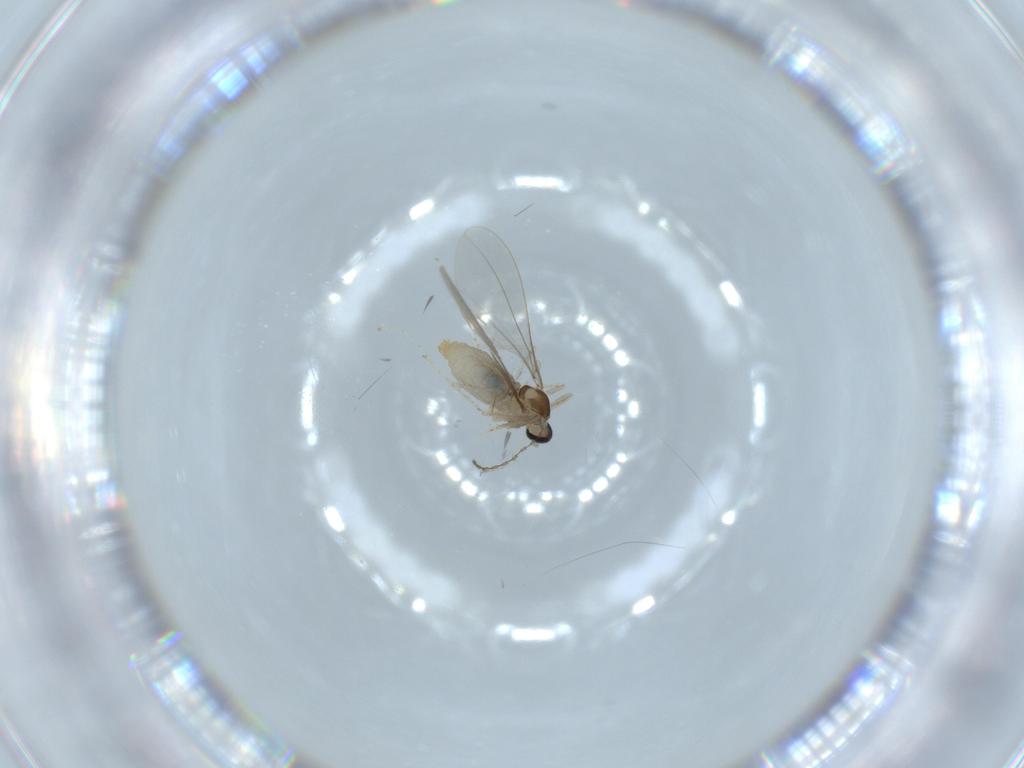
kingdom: Animalia
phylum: Arthropoda
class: Insecta
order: Diptera
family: Cecidomyiidae
